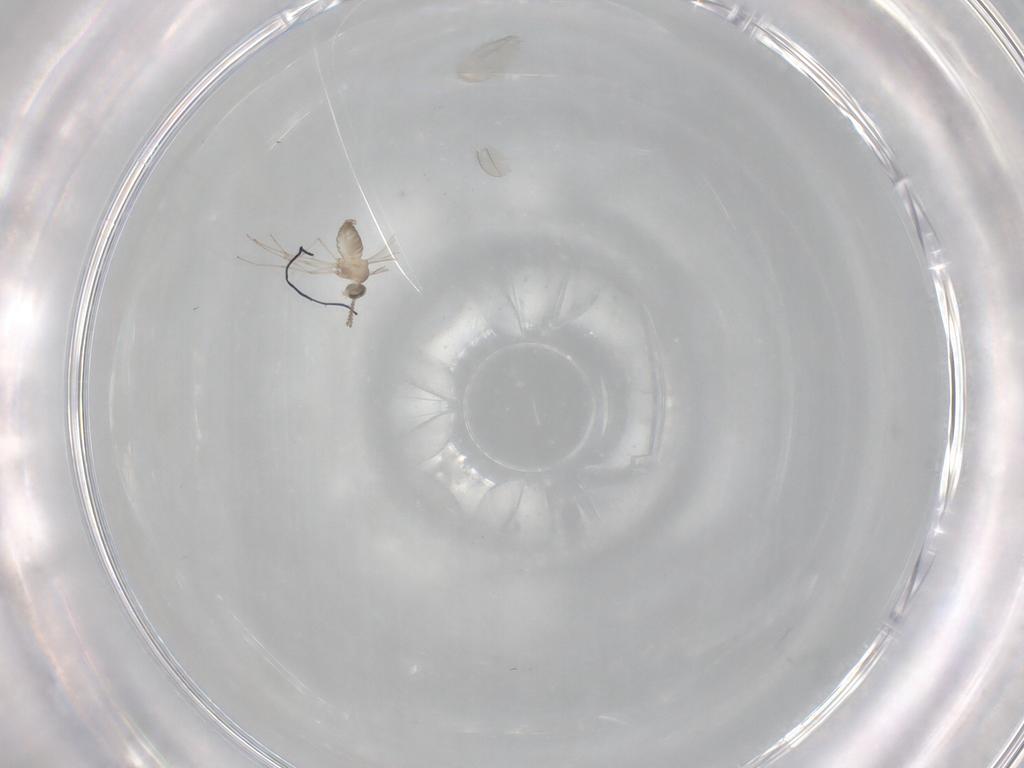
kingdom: Animalia
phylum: Arthropoda
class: Insecta
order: Diptera
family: Cecidomyiidae
